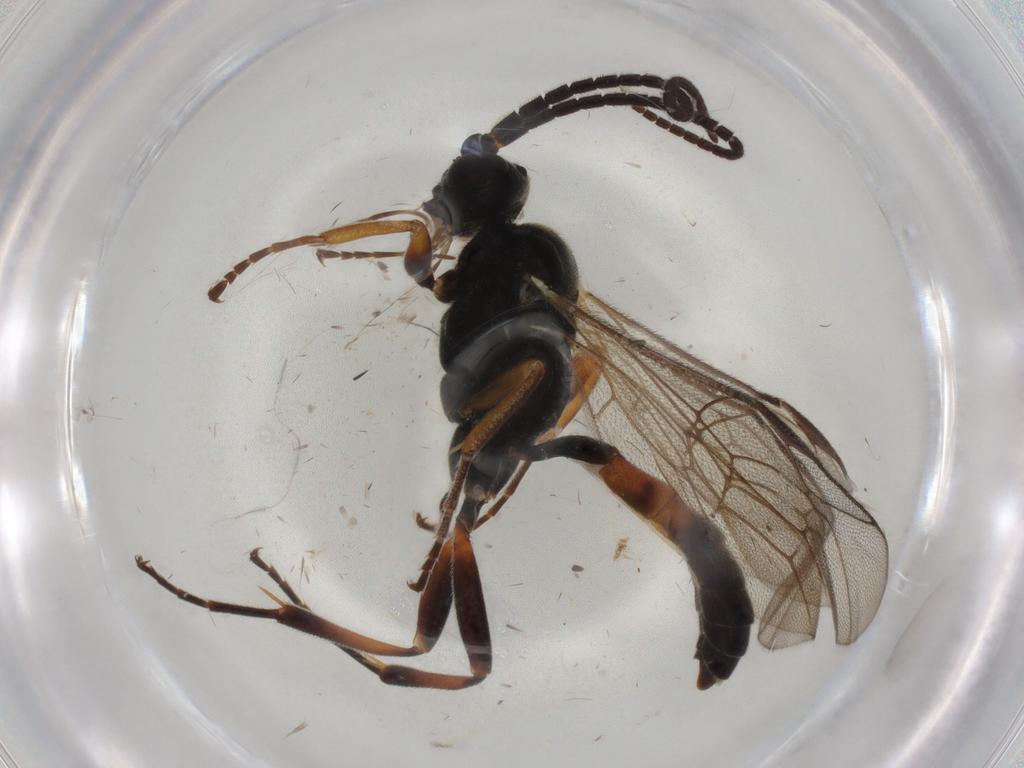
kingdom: Animalia
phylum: Arthropoda
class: Insecta
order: Hymenoptera
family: Ichneumonidae
